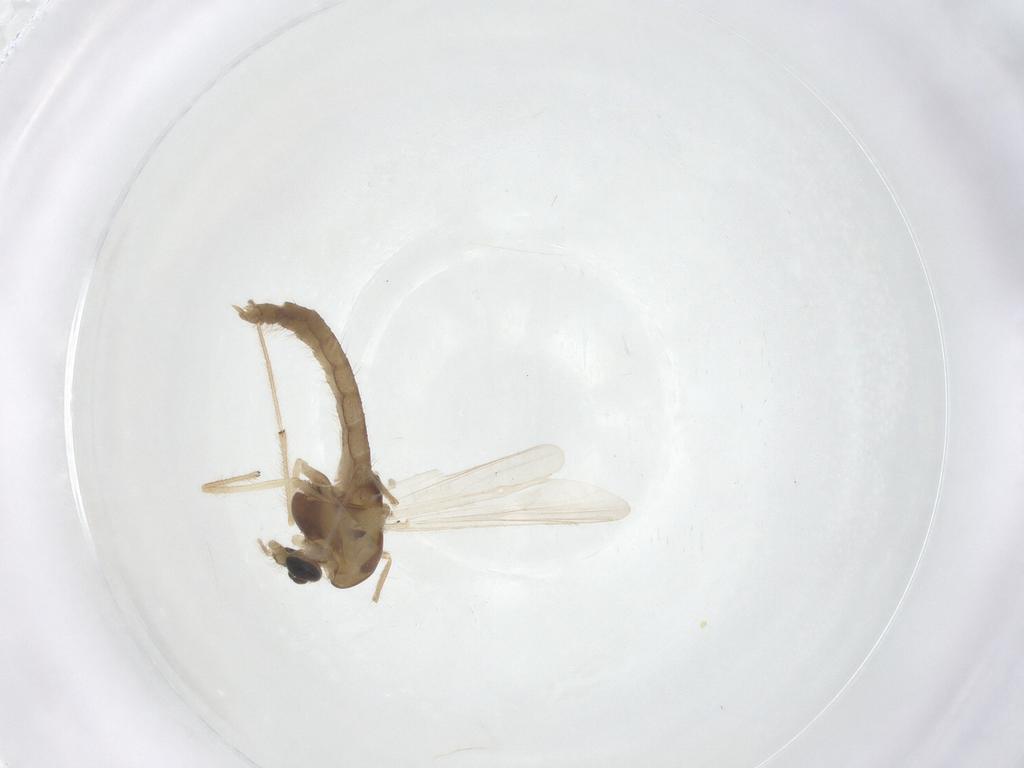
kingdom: Animalia
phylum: Arthropoda
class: Insecta
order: Diptera
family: Chironomidae
